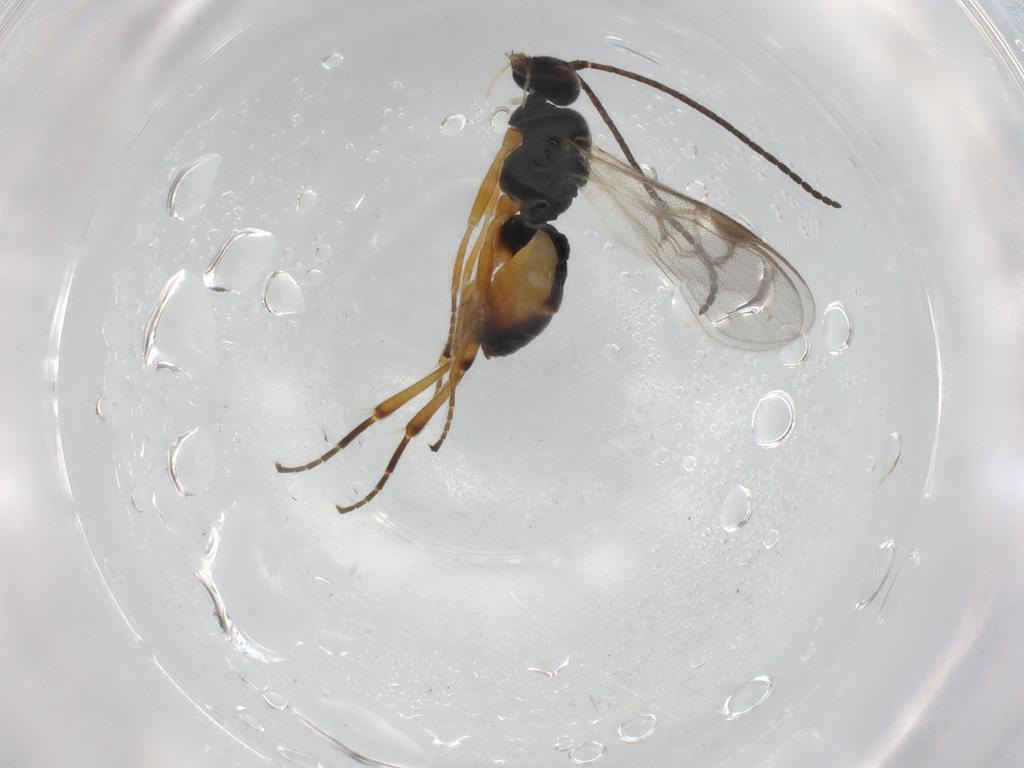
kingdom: Animalia
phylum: Arthropoda
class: Insecta
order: Hymenoptera
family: Braconidae
